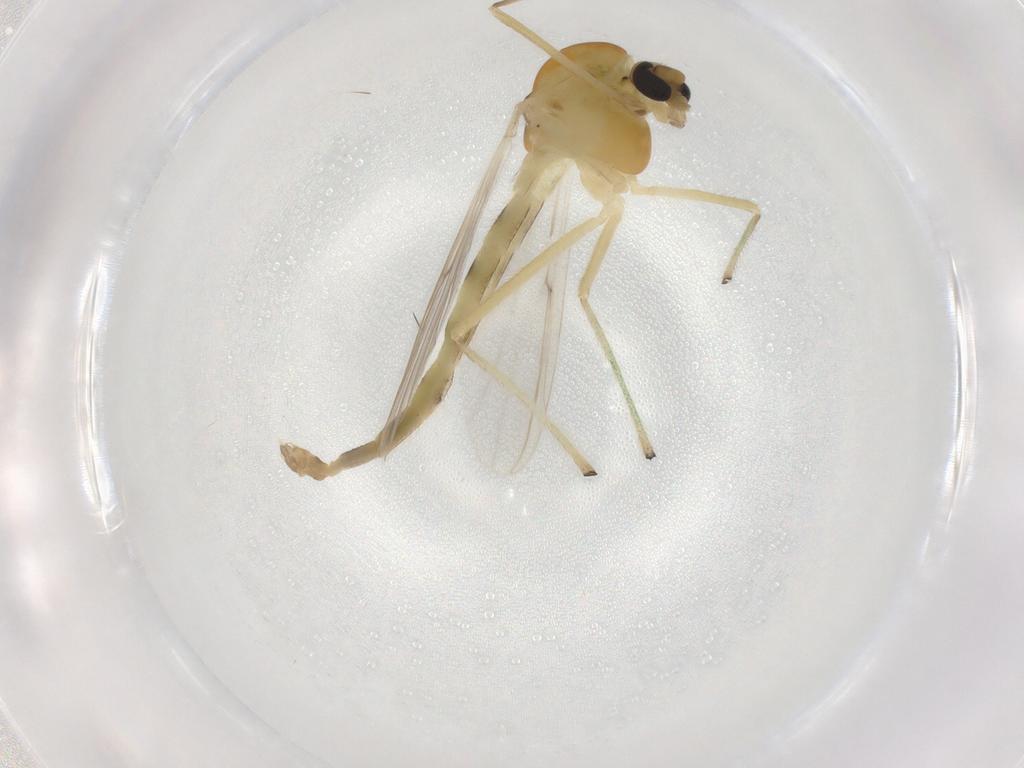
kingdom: Animalia
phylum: Arthropoda
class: Insecta
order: Diptera
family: Chironomidae
